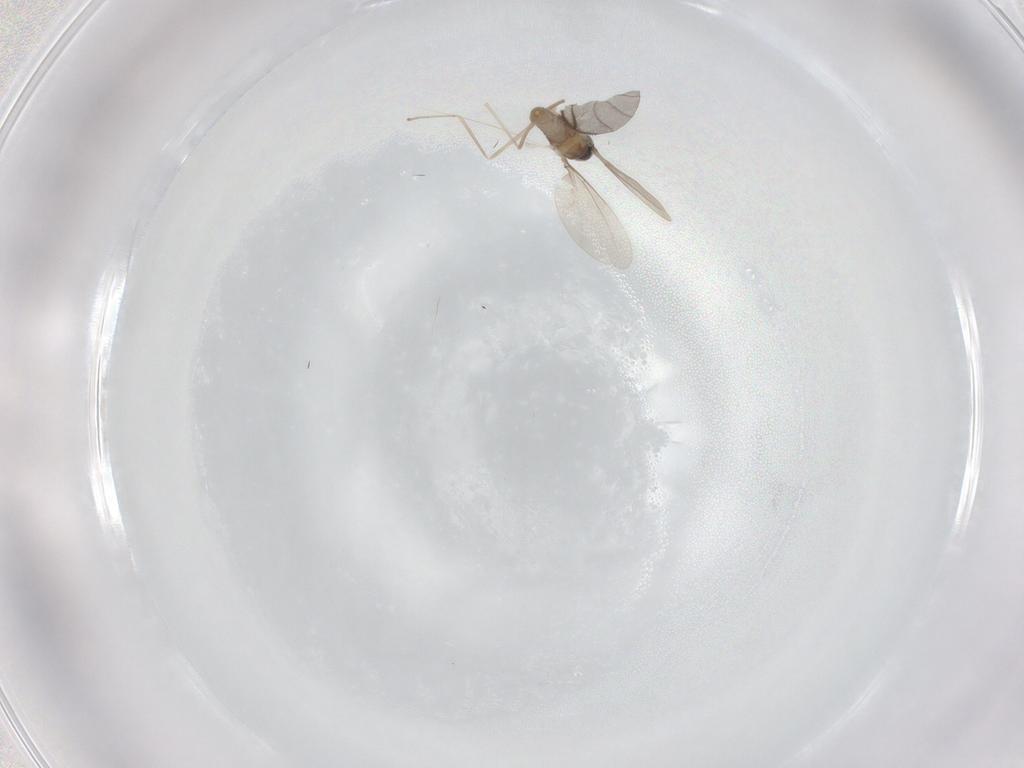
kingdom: Animalia
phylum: Arthropoda
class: Insecta
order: Diptera
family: Cecidomyiidae
